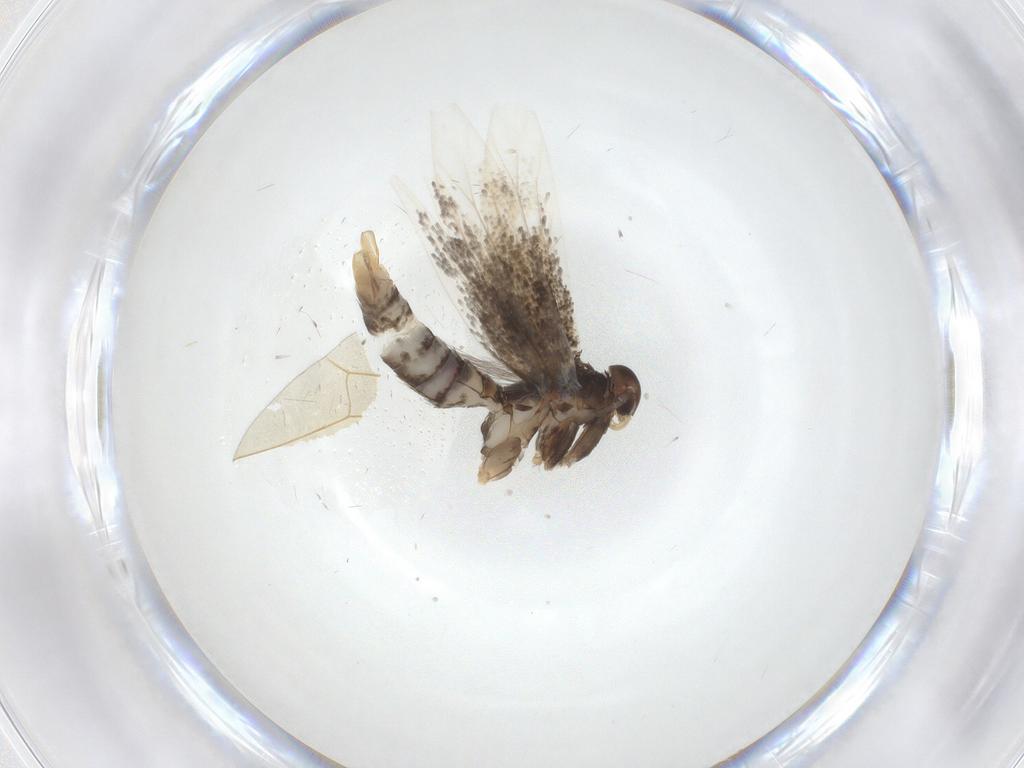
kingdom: Animalia
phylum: Arthropoda
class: Insecta
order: Lepidoptera
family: Elachistidae
